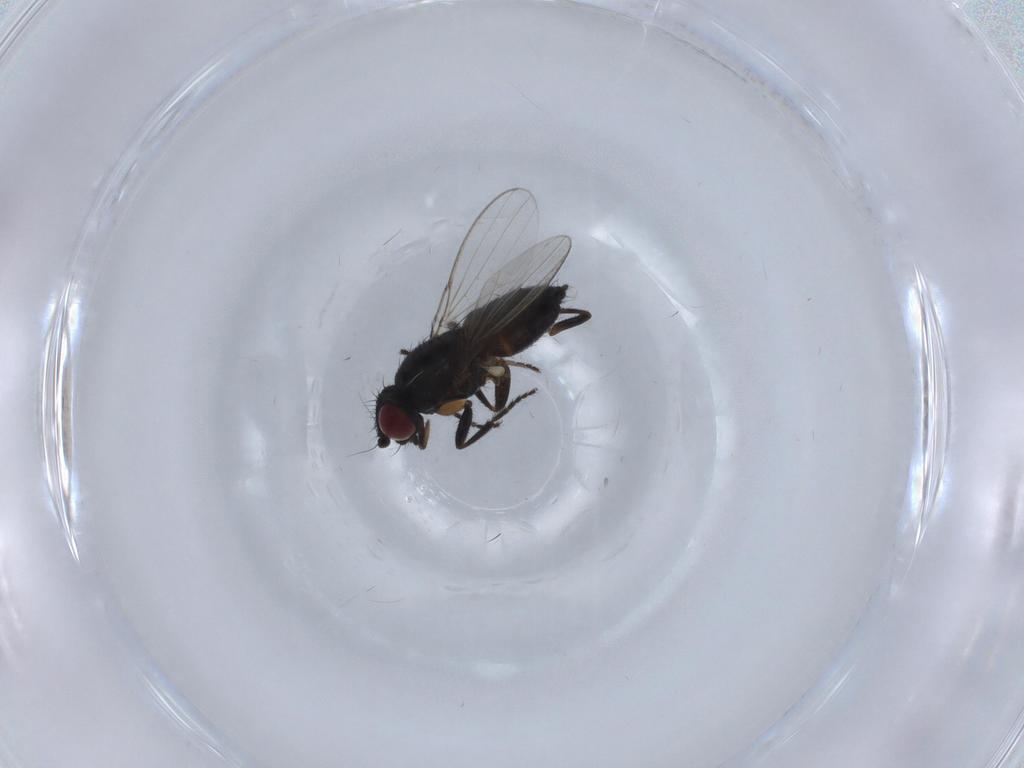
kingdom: Animalia
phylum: Arthropoda
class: Insecta
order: Diptera
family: Milichiidae
